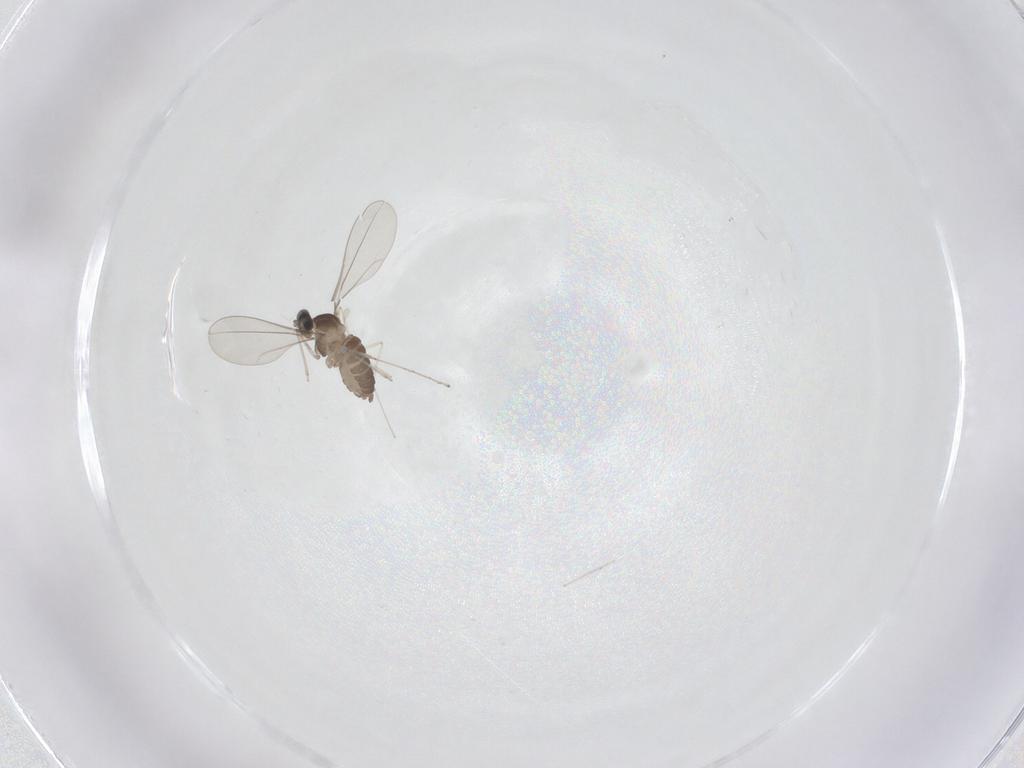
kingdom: Animalia
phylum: Arthropoda
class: Insecta
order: Diptera
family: Cecidomyiidae
